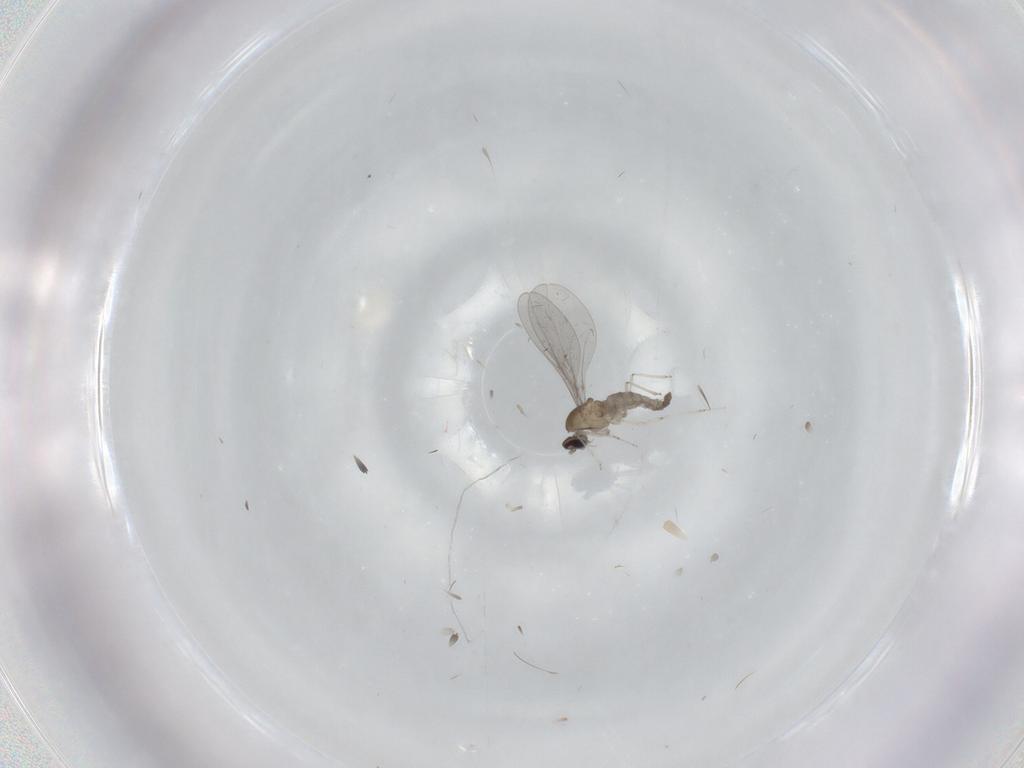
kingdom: Animalia
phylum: Arthropoda
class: Insecta
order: Diptera
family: Cecidomyiidae
